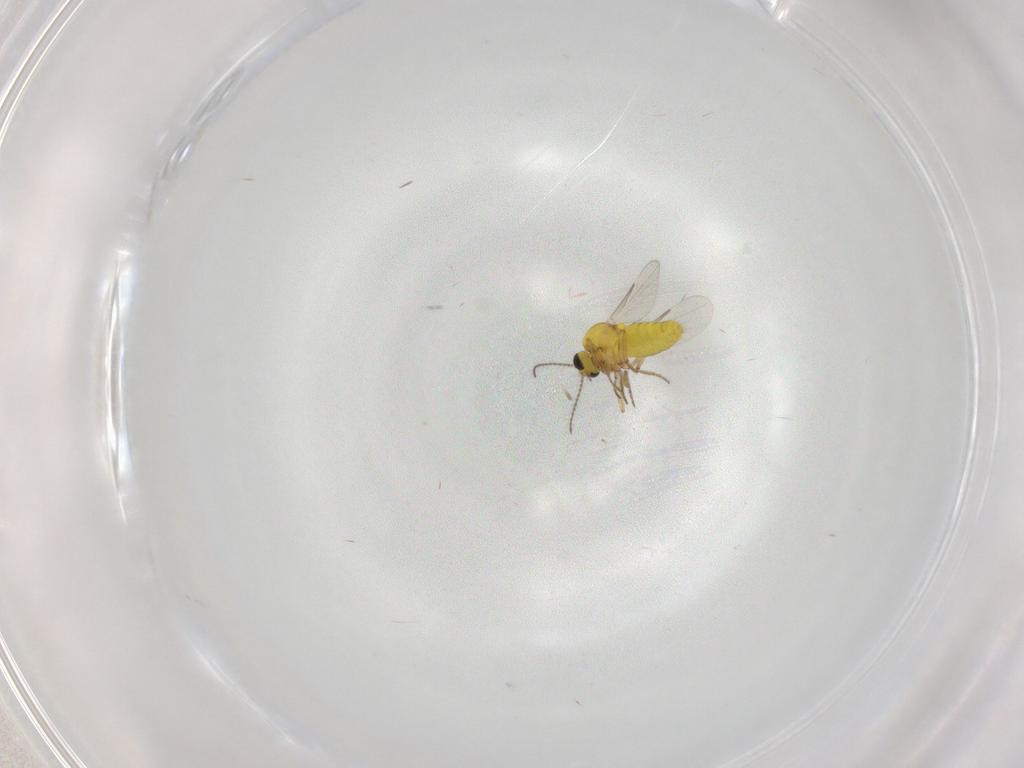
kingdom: Animalia
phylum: Arthropoda
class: Insecta
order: Diptera
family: Ceratopogonidae
